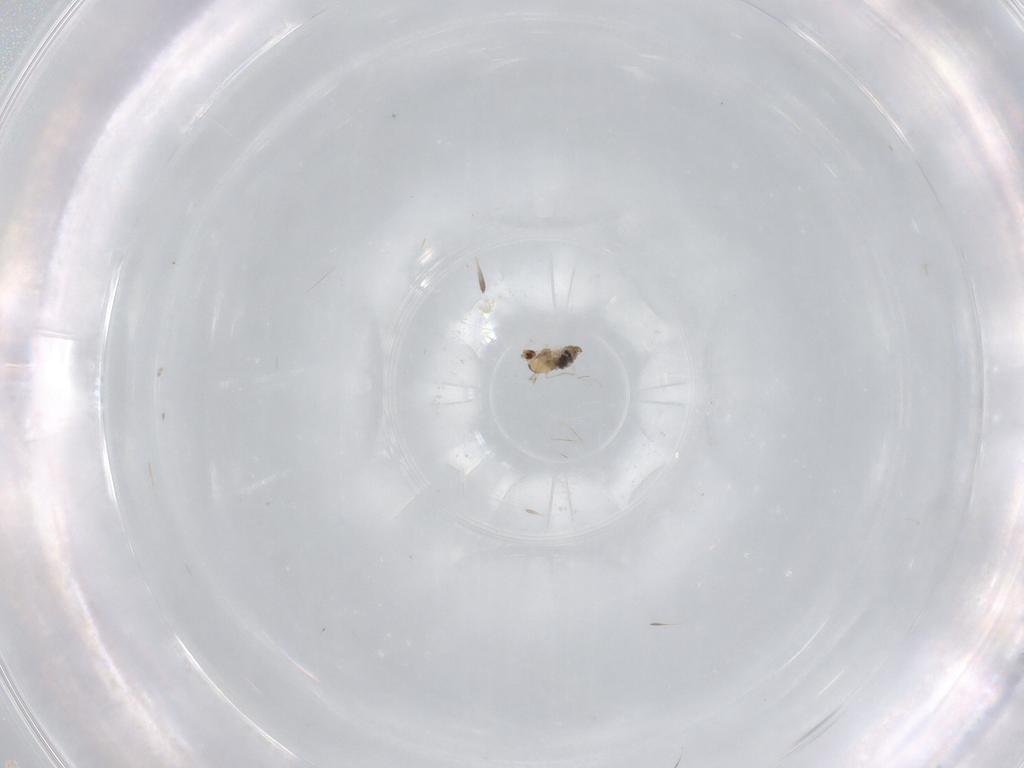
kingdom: Animalia
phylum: Arthropoda
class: Insecta
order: Diptera
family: Cecidomyiidae
